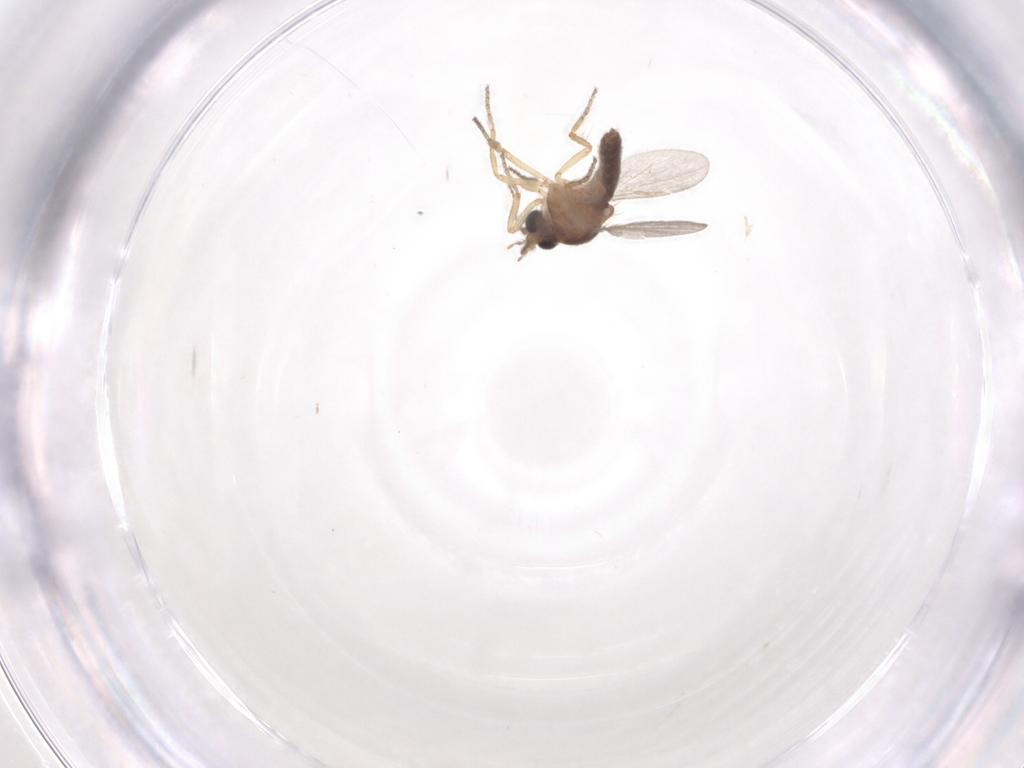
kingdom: Animalia
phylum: Arthropoda
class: Insecta
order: Diptera
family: Ceratopogonidae
